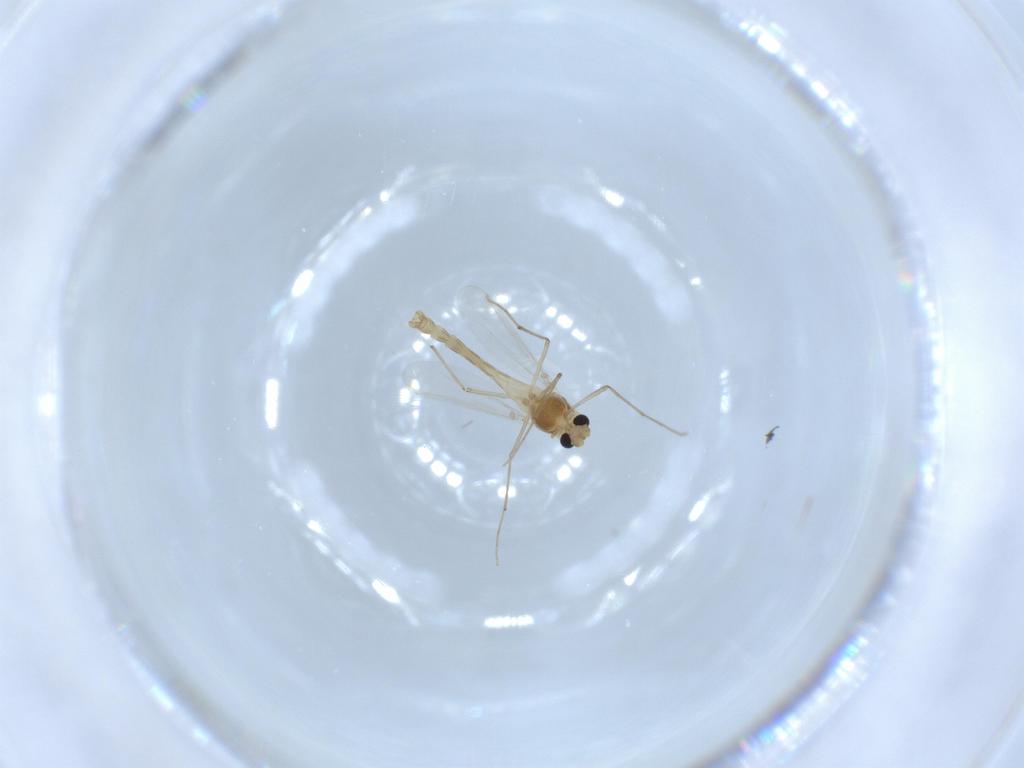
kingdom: Animalia
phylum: Arthropoda
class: Insecta
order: Diptera
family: Chironomidae
